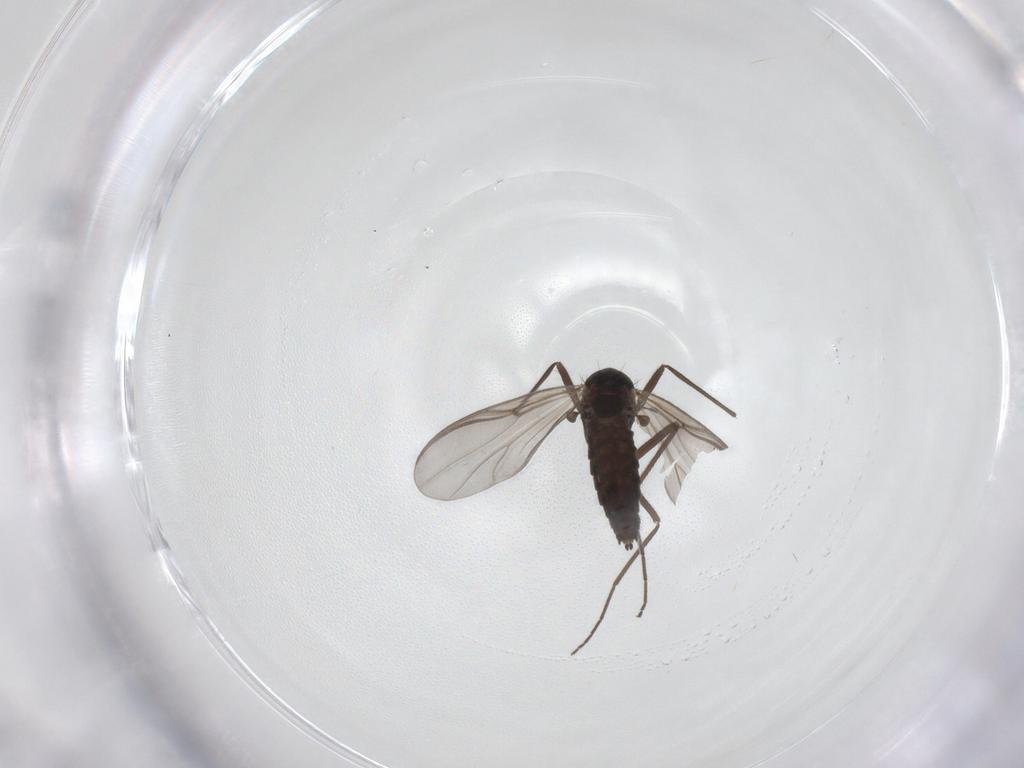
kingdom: Animalia
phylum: Arthropoda
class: Insecta
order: Diptera
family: Chironomidae
